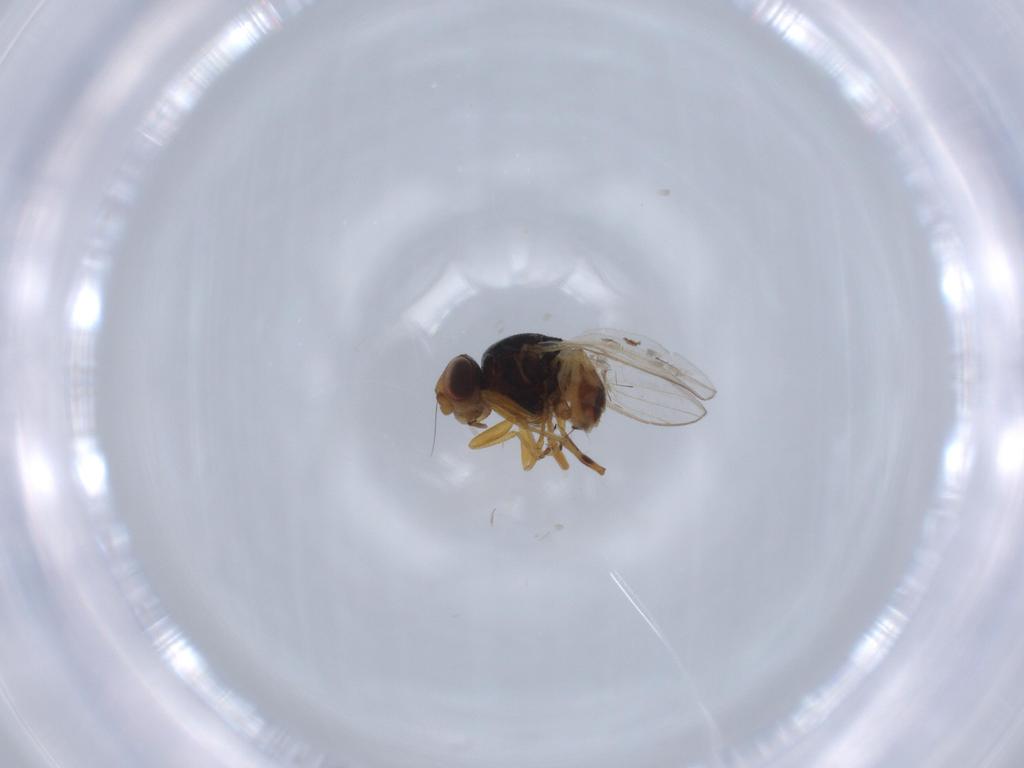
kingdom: Animalia
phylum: Arthropoda
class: Insecta
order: Diptera
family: Chloropidae
